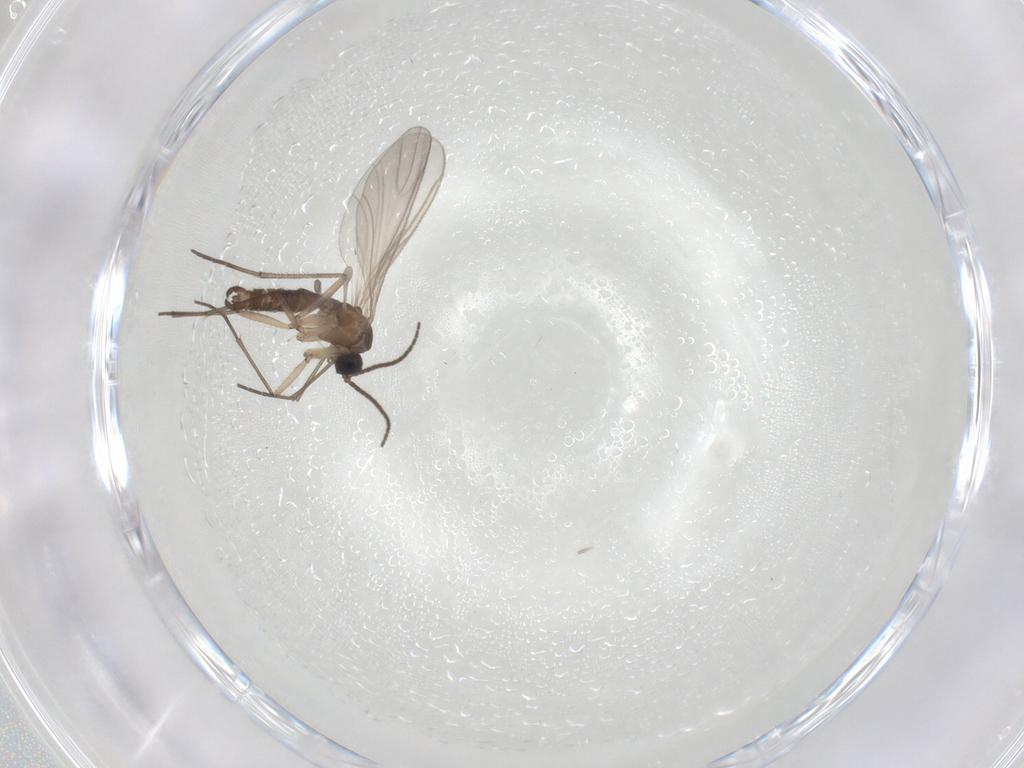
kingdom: Animalia
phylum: Arthropoda
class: Insecta
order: Diptera
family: Sciaridae
